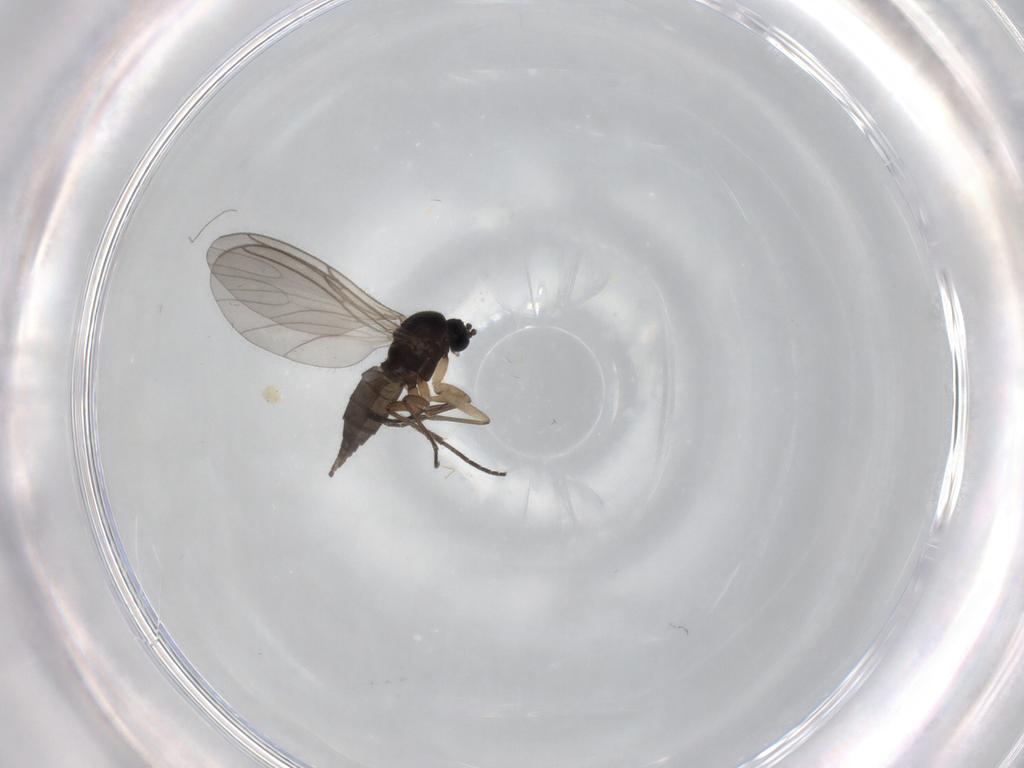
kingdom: Animalia
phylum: Arthropoda
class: Insecta
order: Diptera
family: Sciaridae
